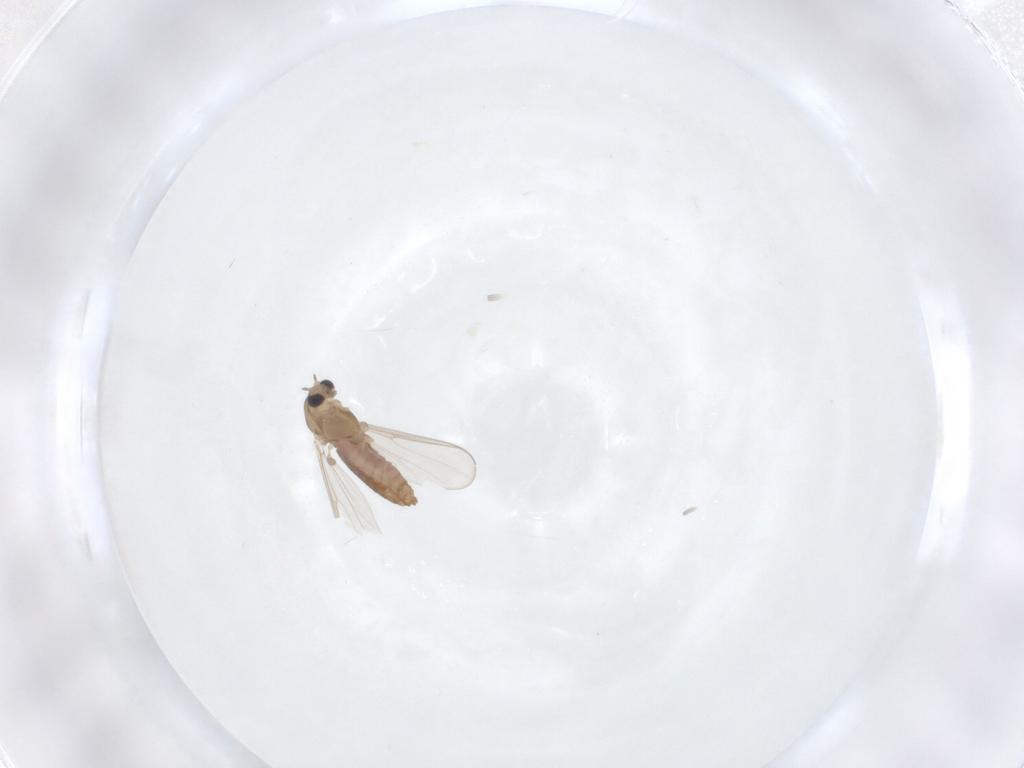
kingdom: Animalia
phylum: Arthropoda
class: Insecta
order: Diptera
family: Chironomidae
